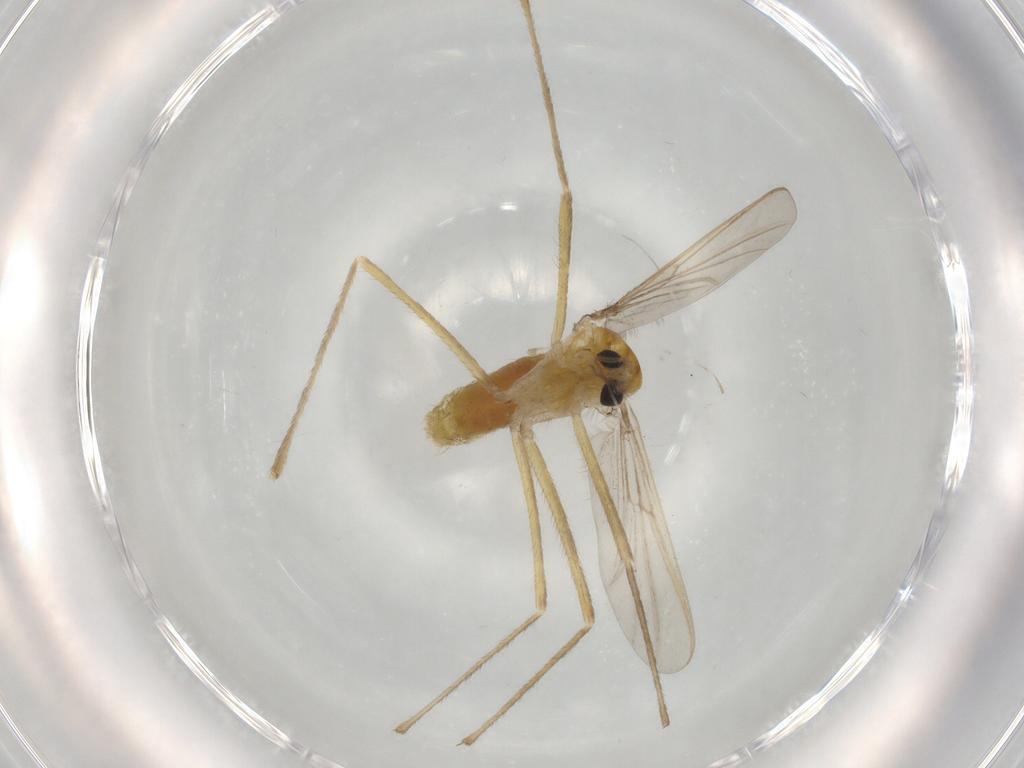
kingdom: Animalia
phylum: Arthropoda
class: Insecta
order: Diptera
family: Chironomidae
